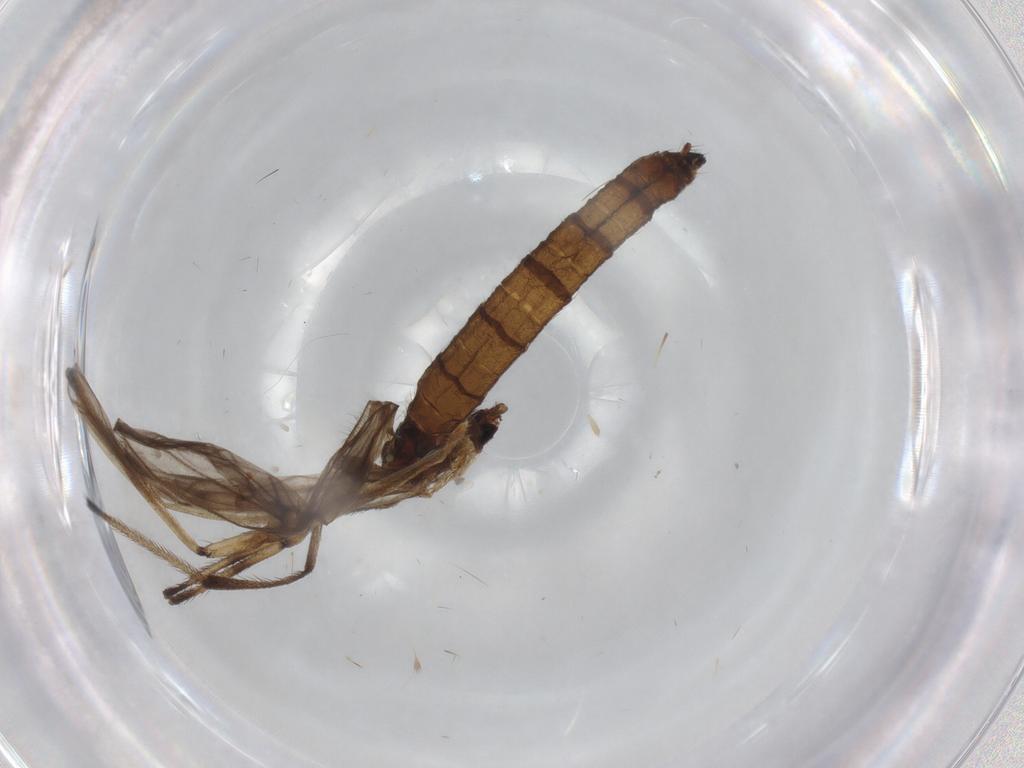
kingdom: Animalia
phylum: Arthropoda
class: Insecta
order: Diptera
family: Limoniidae
